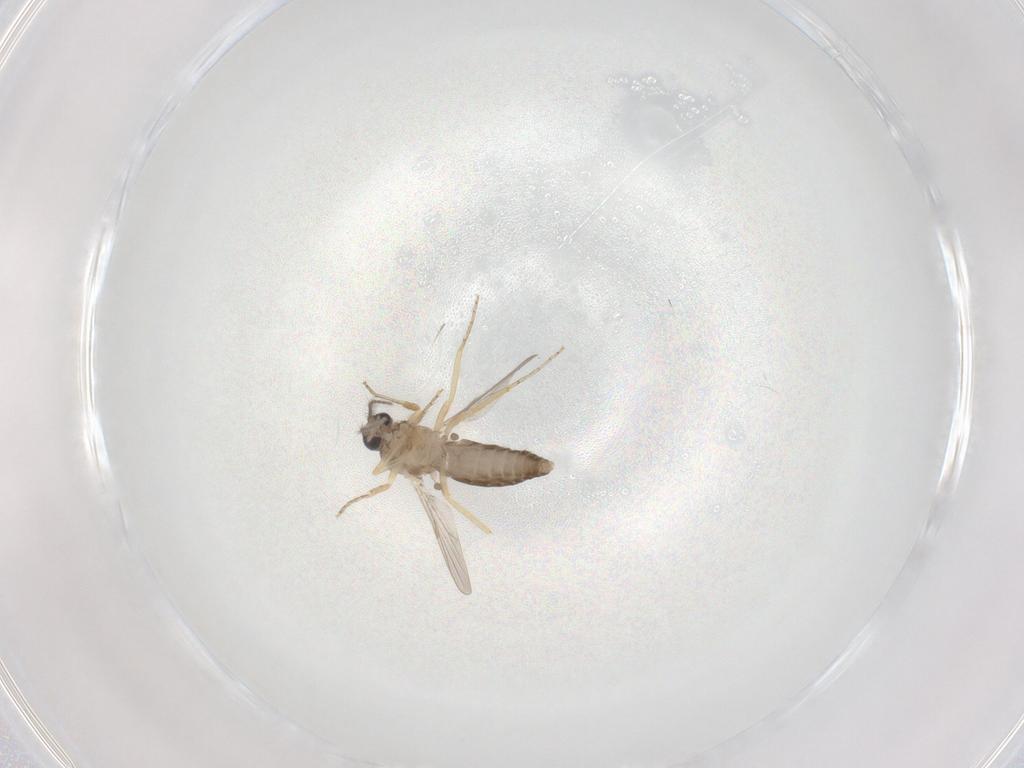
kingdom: Animalia
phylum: Arthropoda
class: Insecta
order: Diptera
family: Ceratopogonidae
